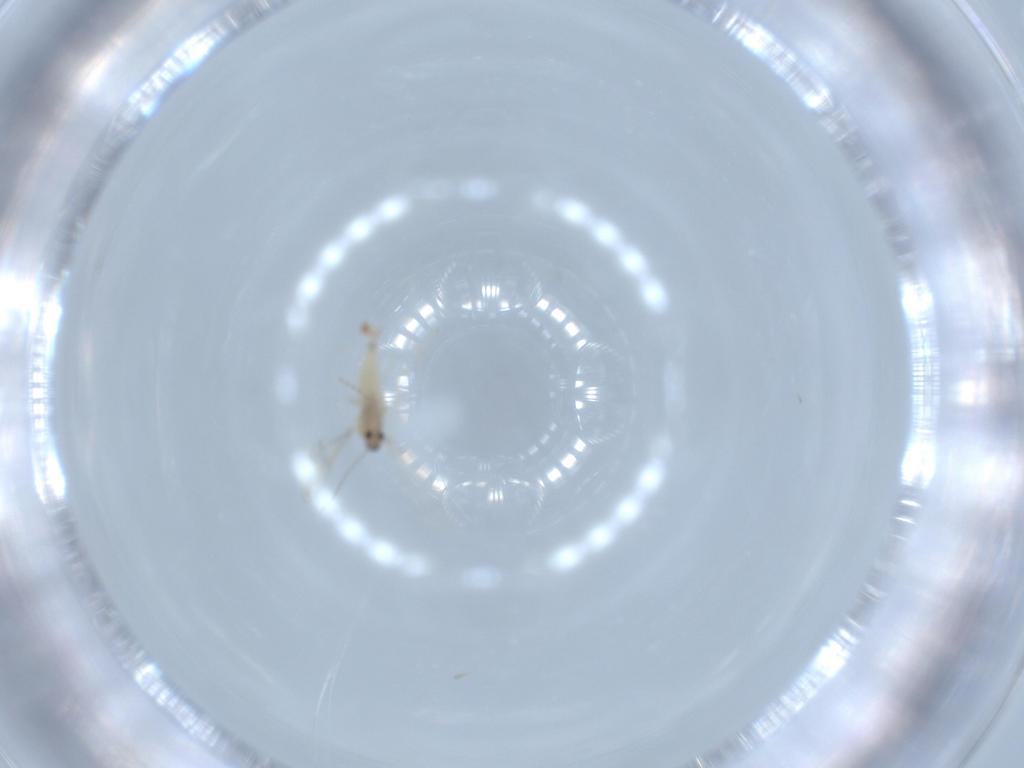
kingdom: Animalia
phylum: Arthropoda
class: Insecta
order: Diptera
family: Cecidomyiidae
